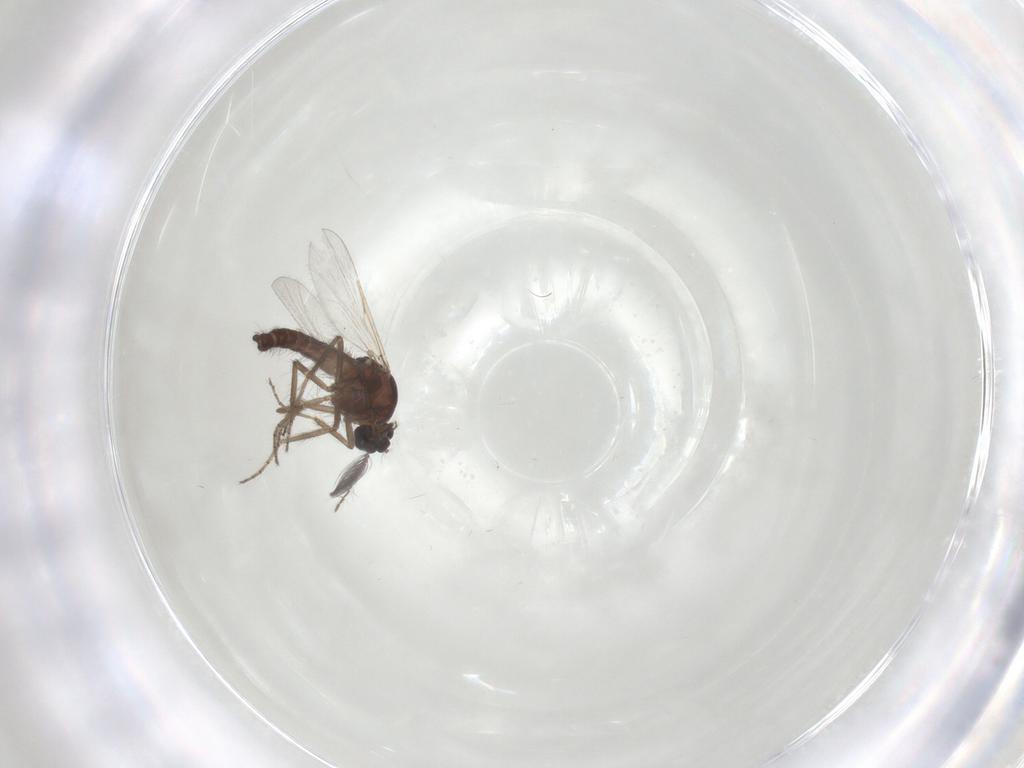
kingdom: Animalia
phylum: Arthropoda
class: Insecta
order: Diptera
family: Ceratopogonidae
